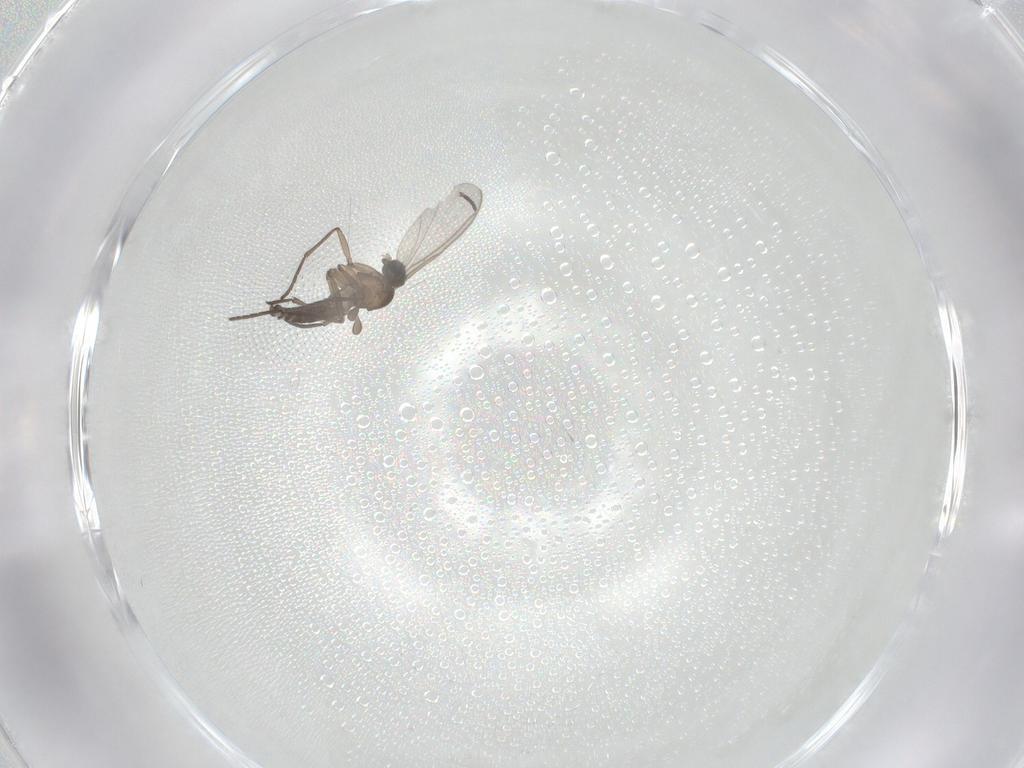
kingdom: Animalia
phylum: Arthropoda
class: Insecta
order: Diptera
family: Sciaridae
